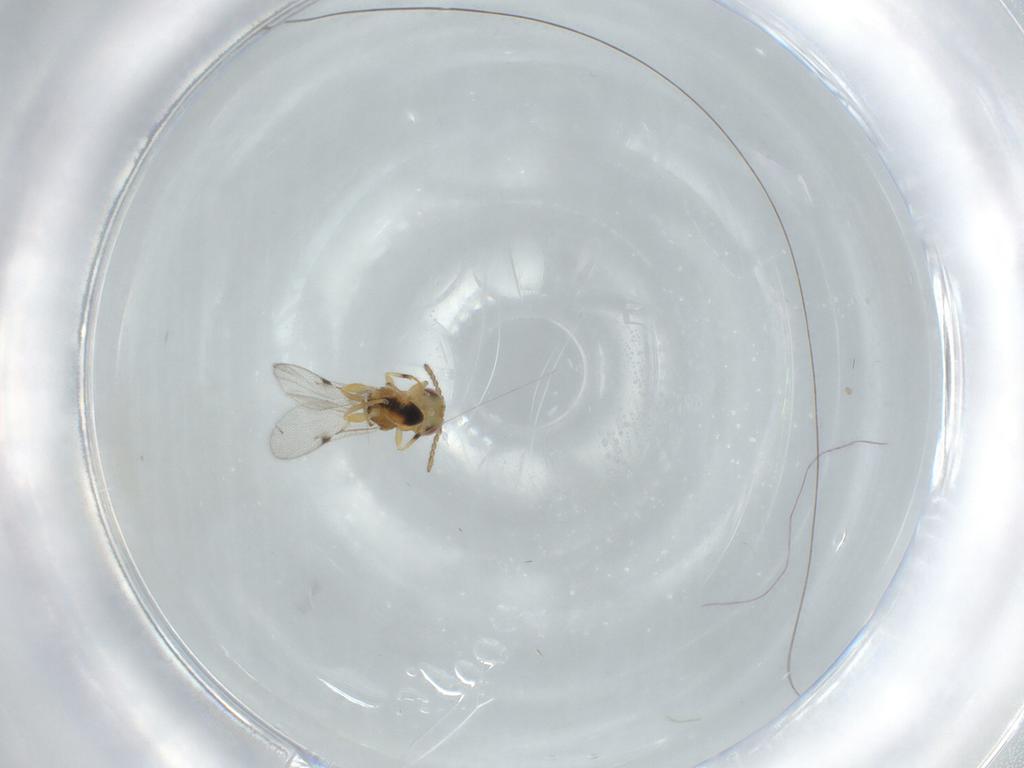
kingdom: Animalia
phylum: Arthropoda
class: Insecta
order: Hymenoptera
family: Eurytomidae
